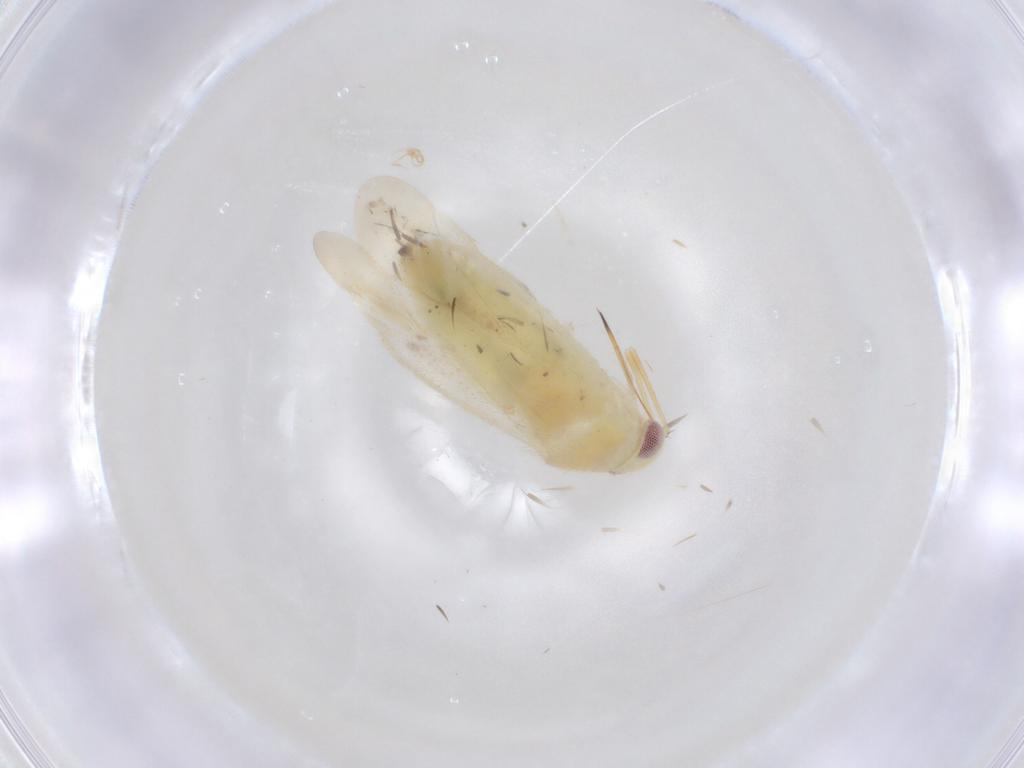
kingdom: Animalia
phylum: Arthropoda
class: Insecta
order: Hemiptera
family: Miridae
